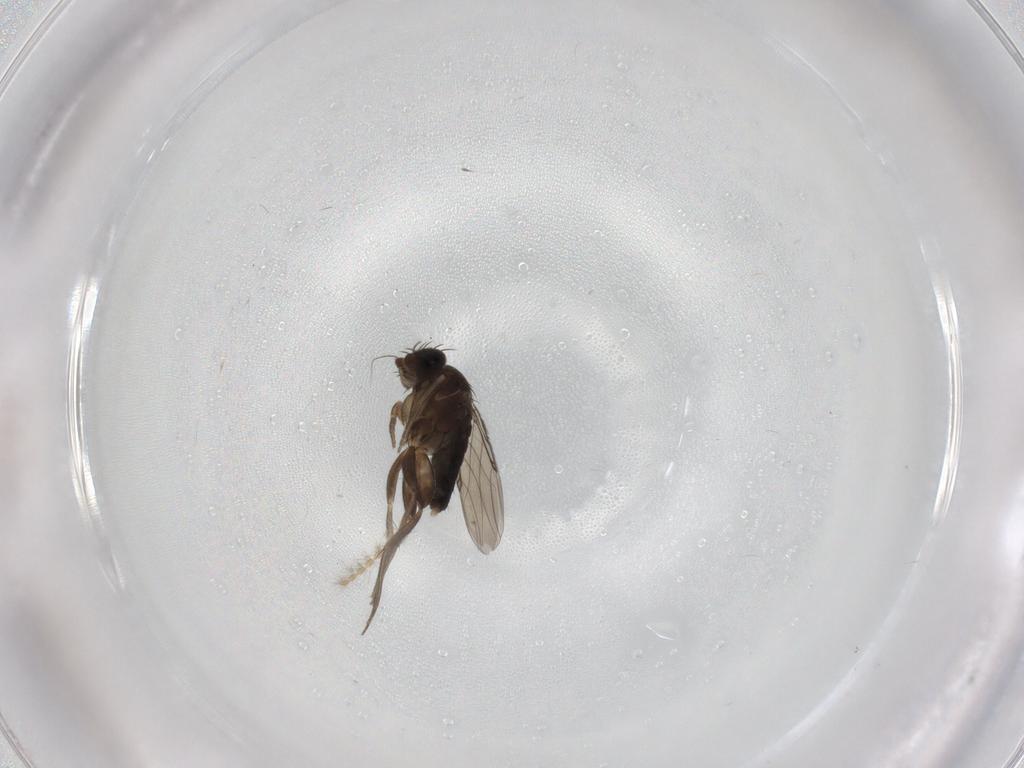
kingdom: Animalia
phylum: Arthropoda
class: Insecta
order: Diptera
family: Phoridae
